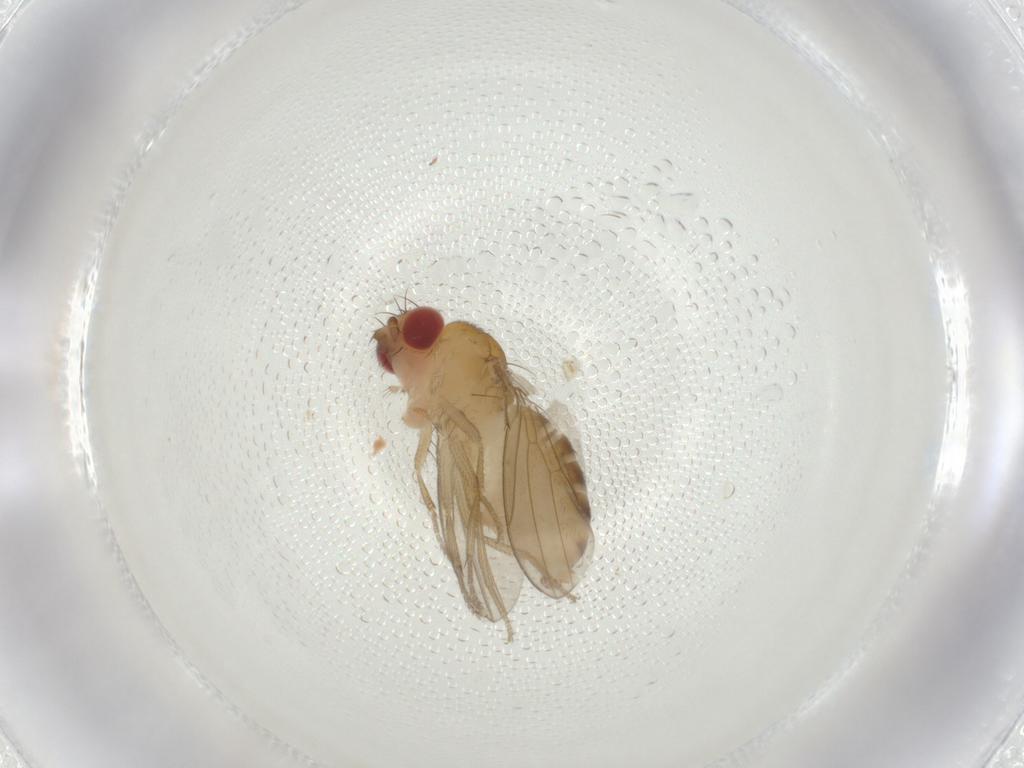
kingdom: Animalia
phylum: Arthropoda
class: Insecta
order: Diptera
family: Drosophilidae
